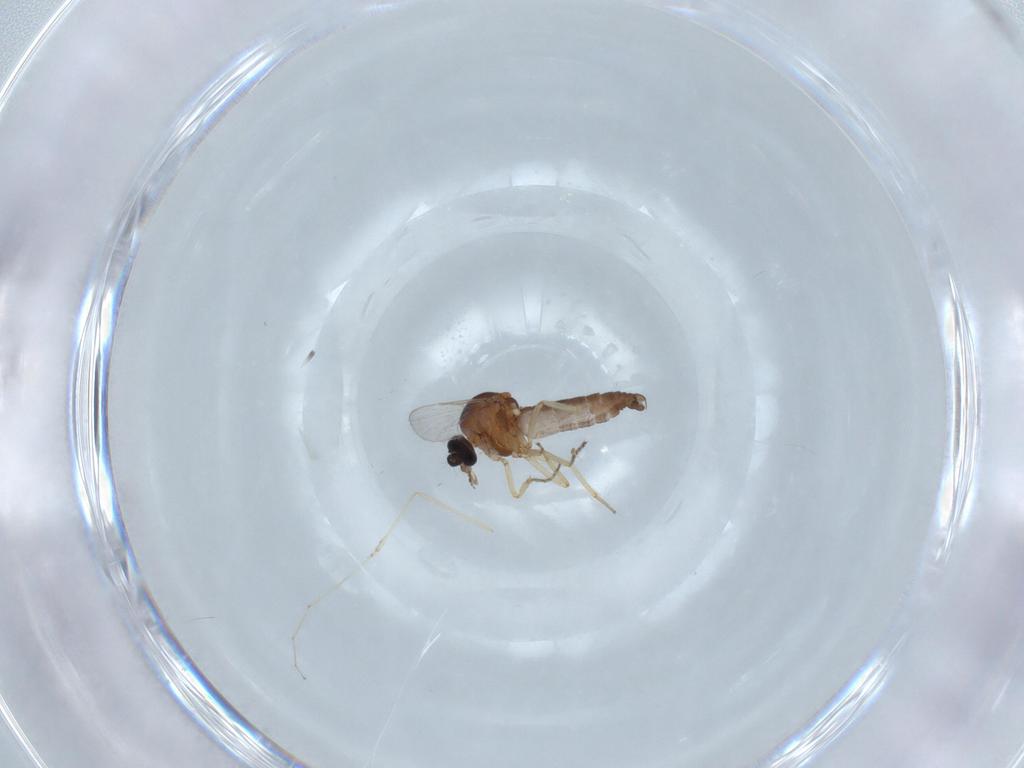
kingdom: Animalia
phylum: Arthropoda
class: Insecta
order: Diptera
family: Ceratopogonidae
